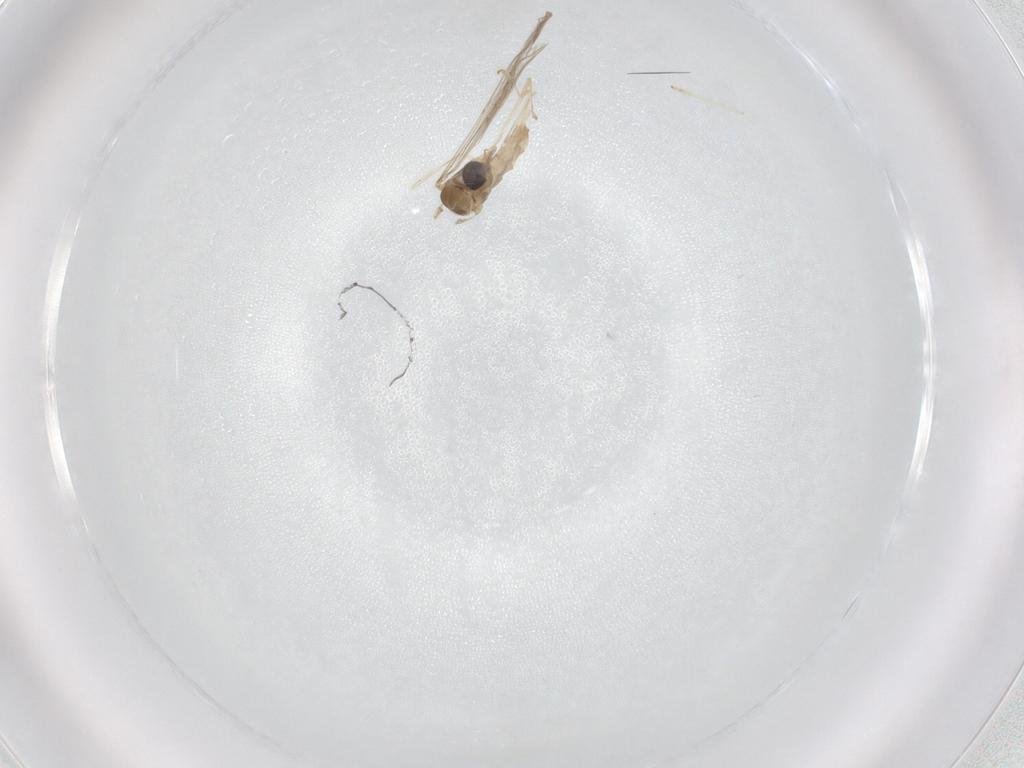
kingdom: Animalia
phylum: Arthropoda
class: Insecta
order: Diptera
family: Cecidomyiidae
